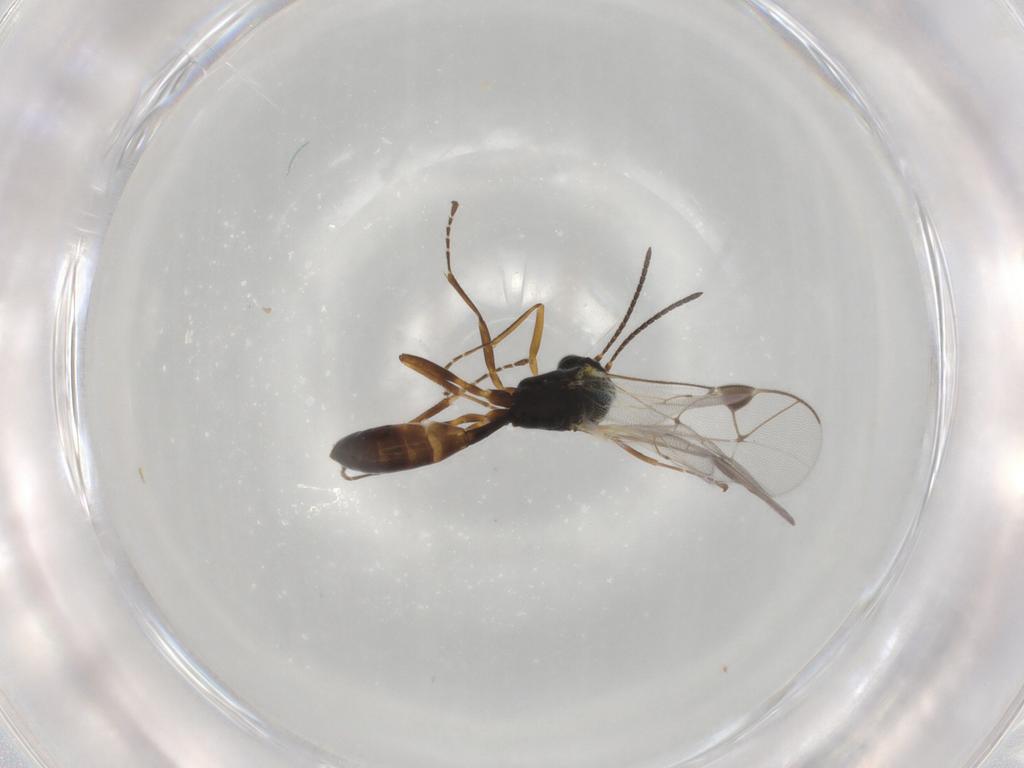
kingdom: Animalia
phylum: Arthropoda
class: Insecta
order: Hymenoptera
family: Ichneumonidae
